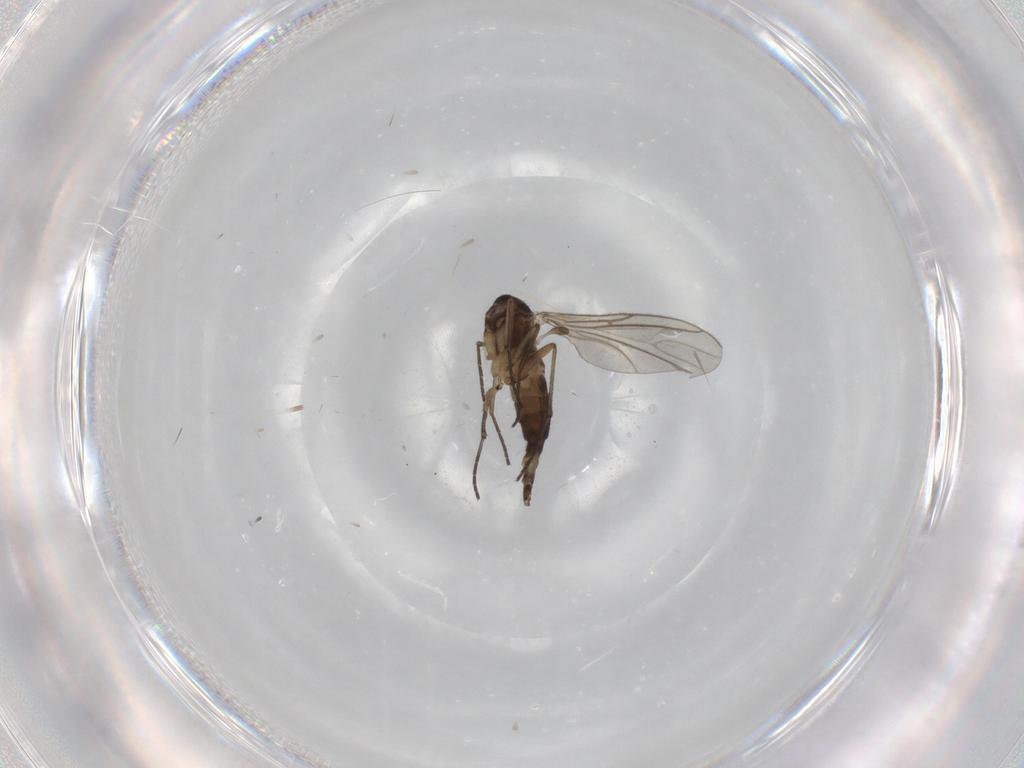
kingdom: Animalia
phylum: Arthropoda
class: Insecta
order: Diptera
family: Sciaridae
